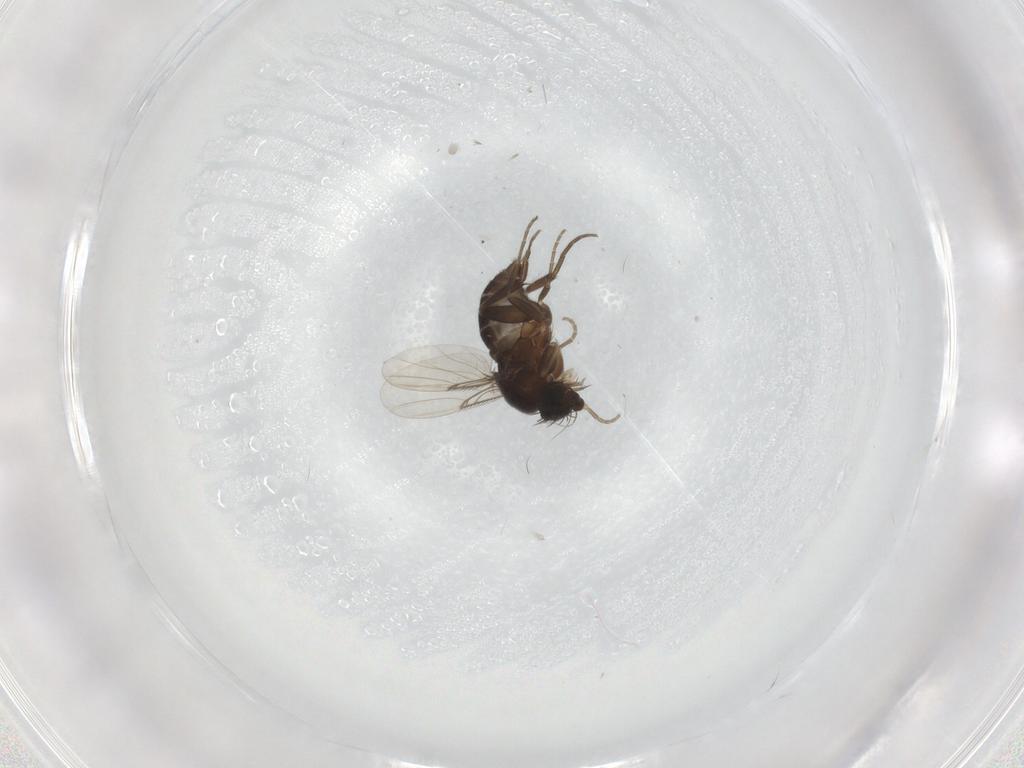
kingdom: Animalia
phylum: Arthropoda
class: Insecta
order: Diptera
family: Phoridae
